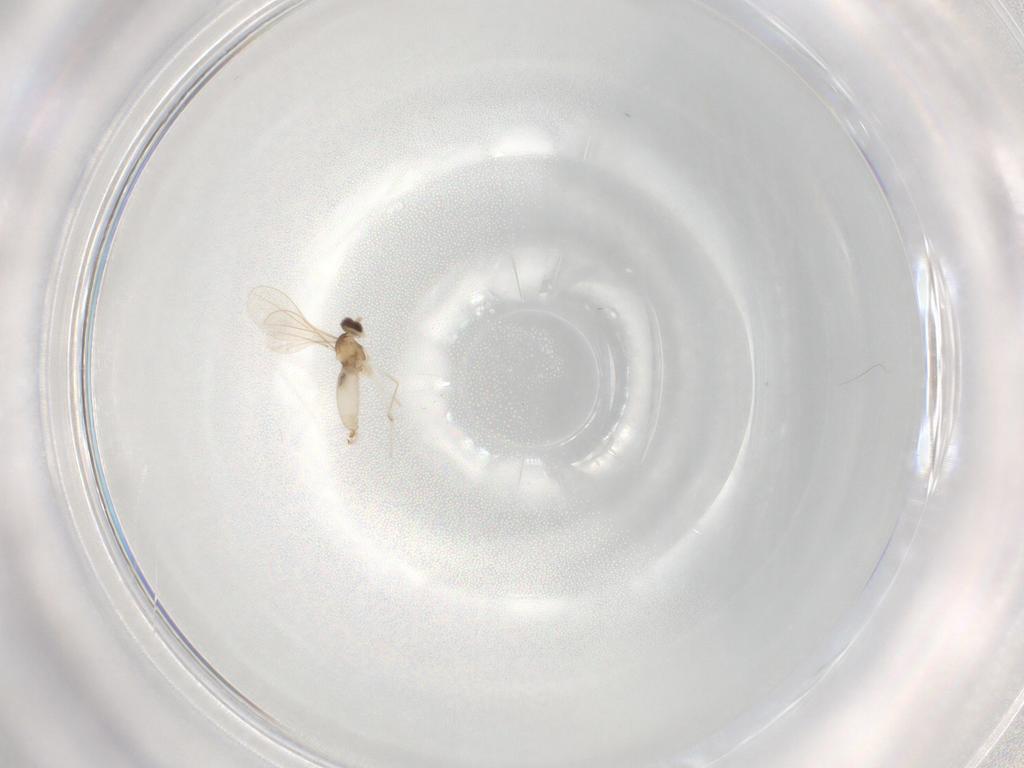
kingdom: Animalia
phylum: Arthropoda
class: Insecta
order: Diptera
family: Cecidomyiidae
